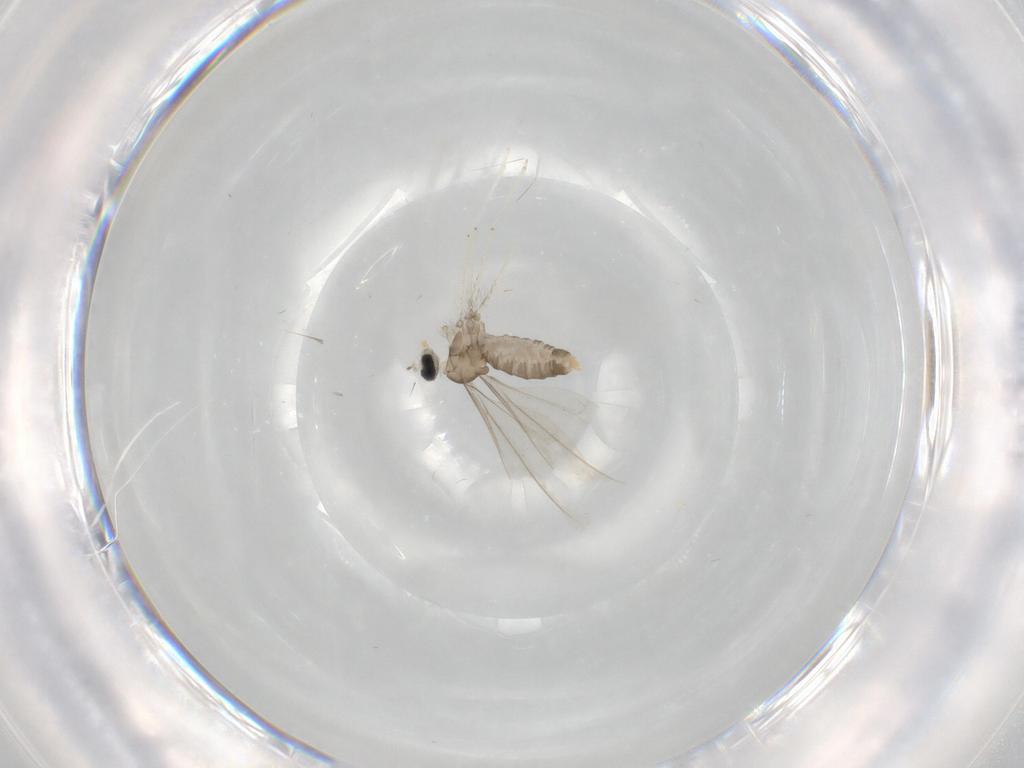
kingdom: Animalia
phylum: Arthropoda
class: Insecta
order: Diptera
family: Cecidomyiidae
